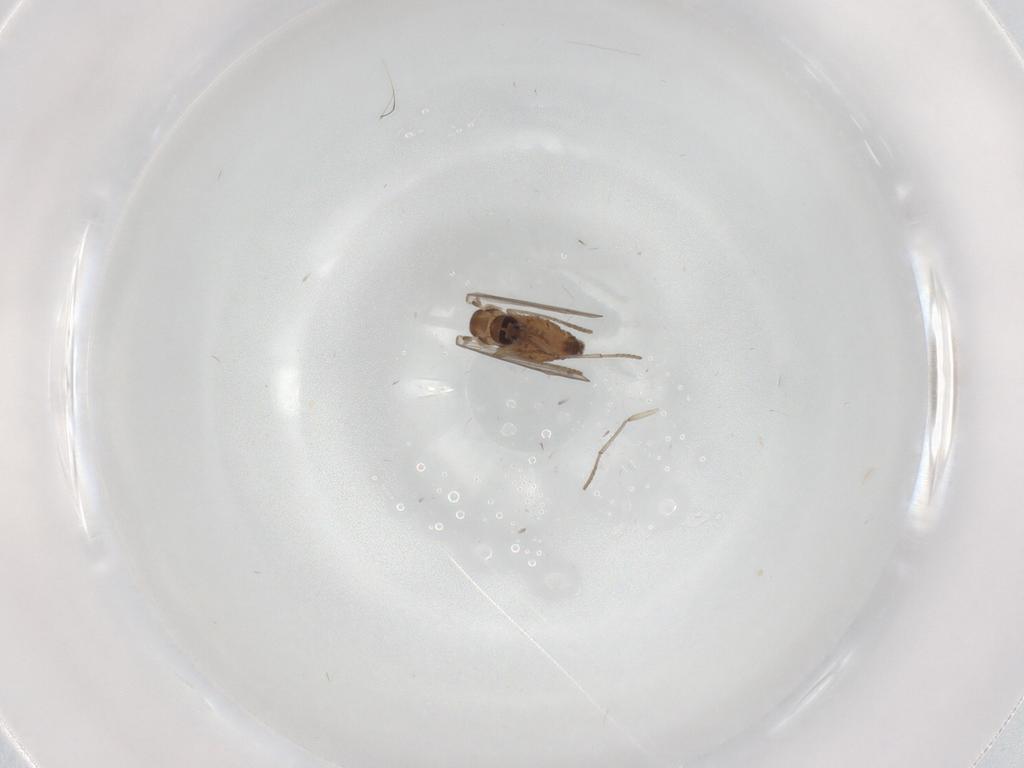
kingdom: Animalia
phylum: Arthropoda
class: Insecta
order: Diptera
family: Psychodidae
